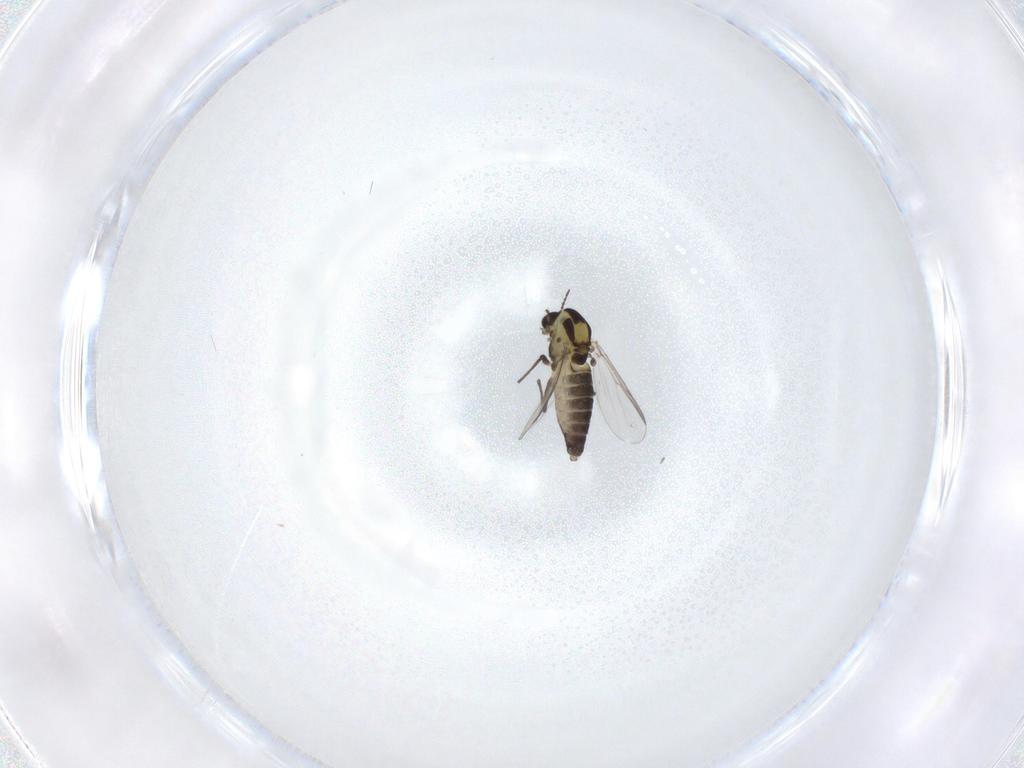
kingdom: Animalia
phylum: Arthropoda
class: Insecta
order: Diptera
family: Chironomidae
